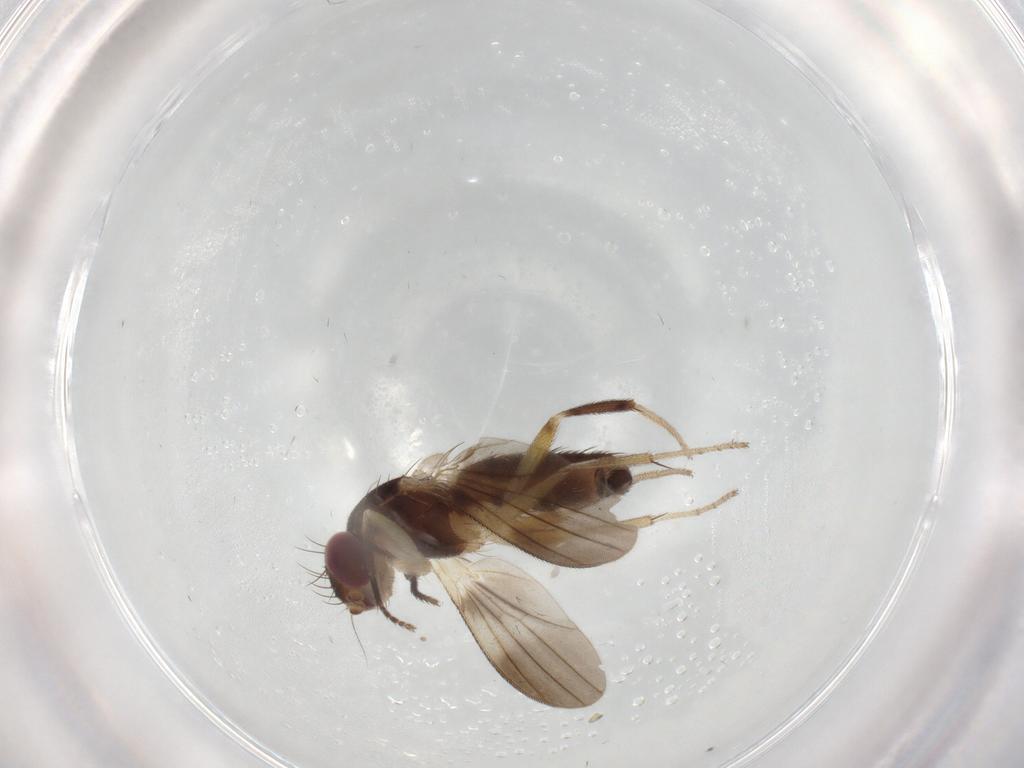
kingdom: Animalia
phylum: Arthropoda
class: Insecta
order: Diptera
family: Clusiidae
